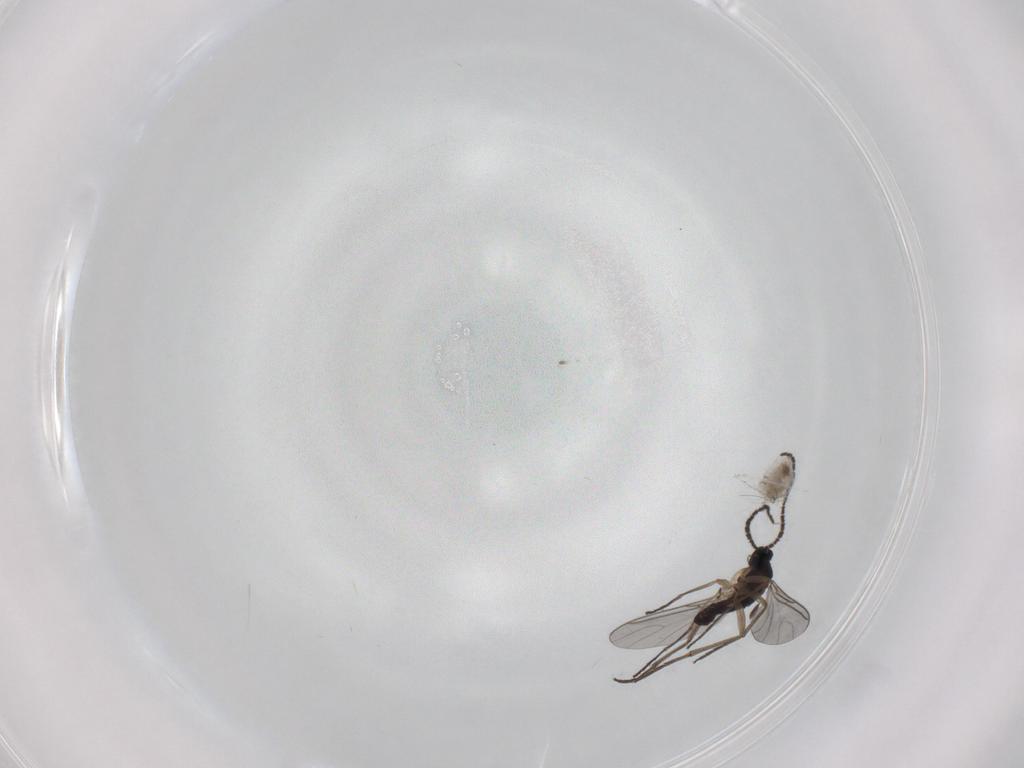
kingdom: Animalia
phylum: Arthropoda
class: Insecta
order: Diptera
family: Sciaridae
